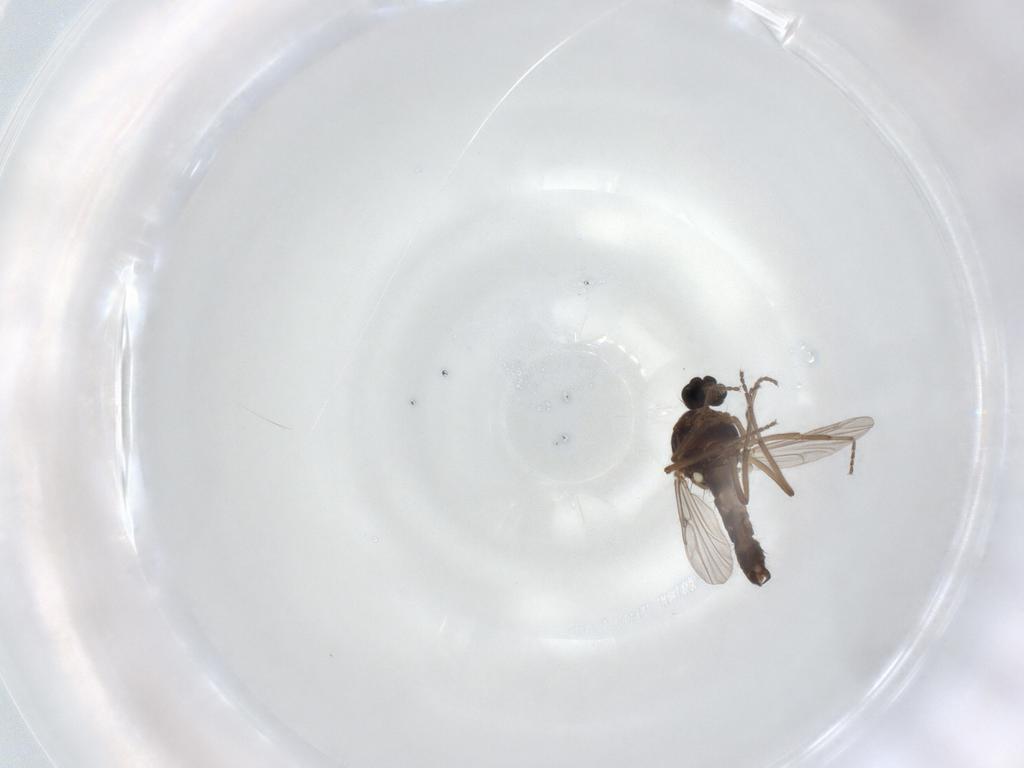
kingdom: Animalia
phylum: Arthropoda
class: Insecta
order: Diptera
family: Ceratopogonidae
